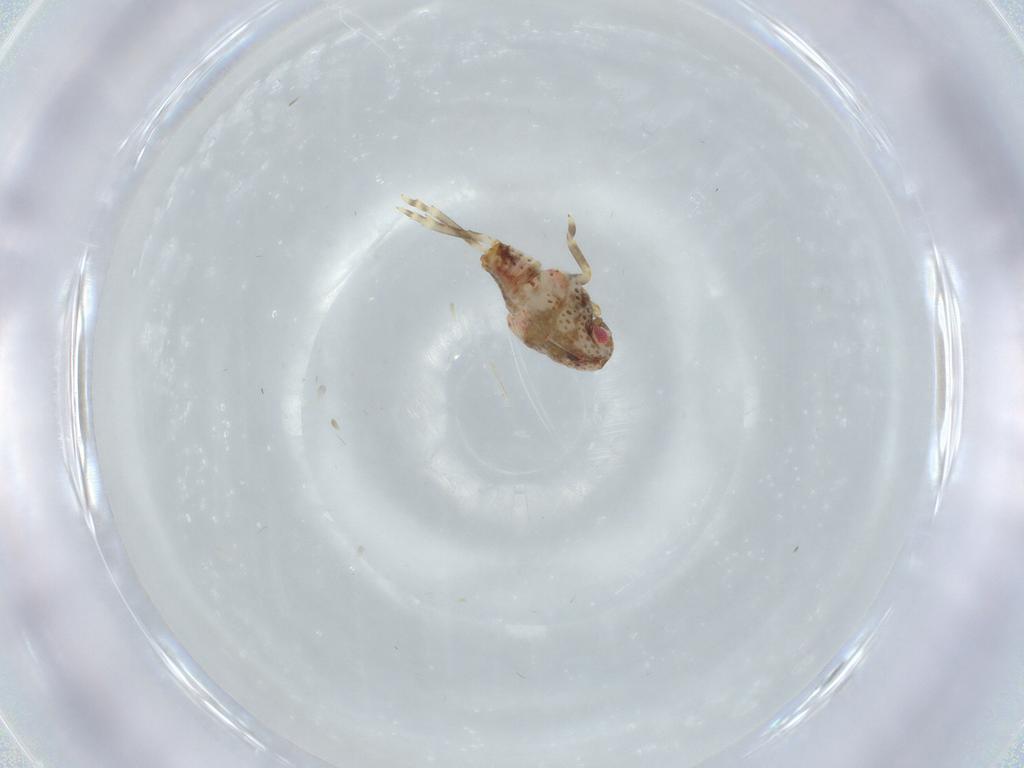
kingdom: Animalia
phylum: Arthropoda
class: Insecta
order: Hemiptera
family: Flatidae
